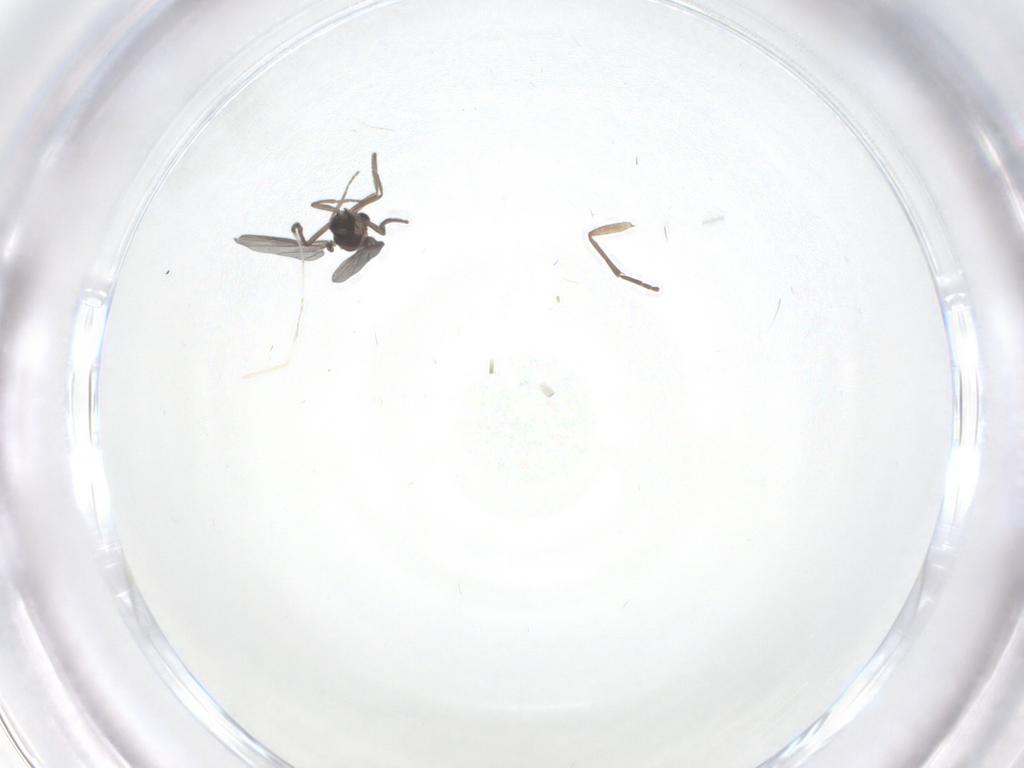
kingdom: Animalia
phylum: Arthropoda
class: Insecta
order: Diptera
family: Cecidomyiidae
